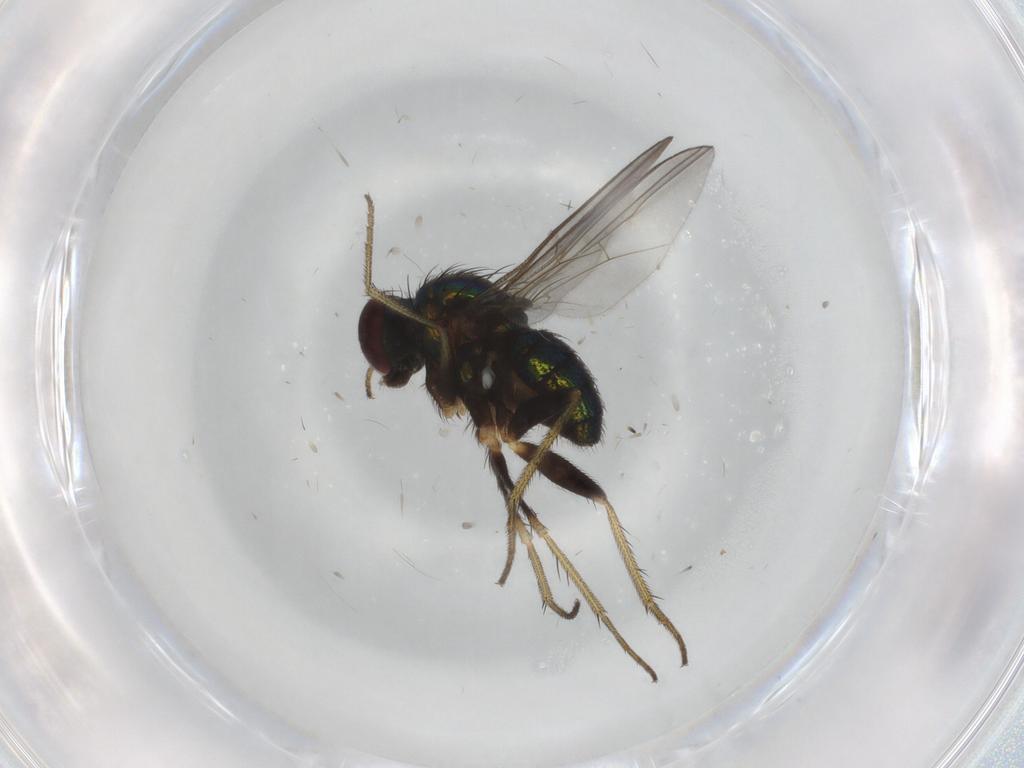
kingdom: Animalia
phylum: Arthropoda
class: Insecta
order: Diptera
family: Dolichopodidae
